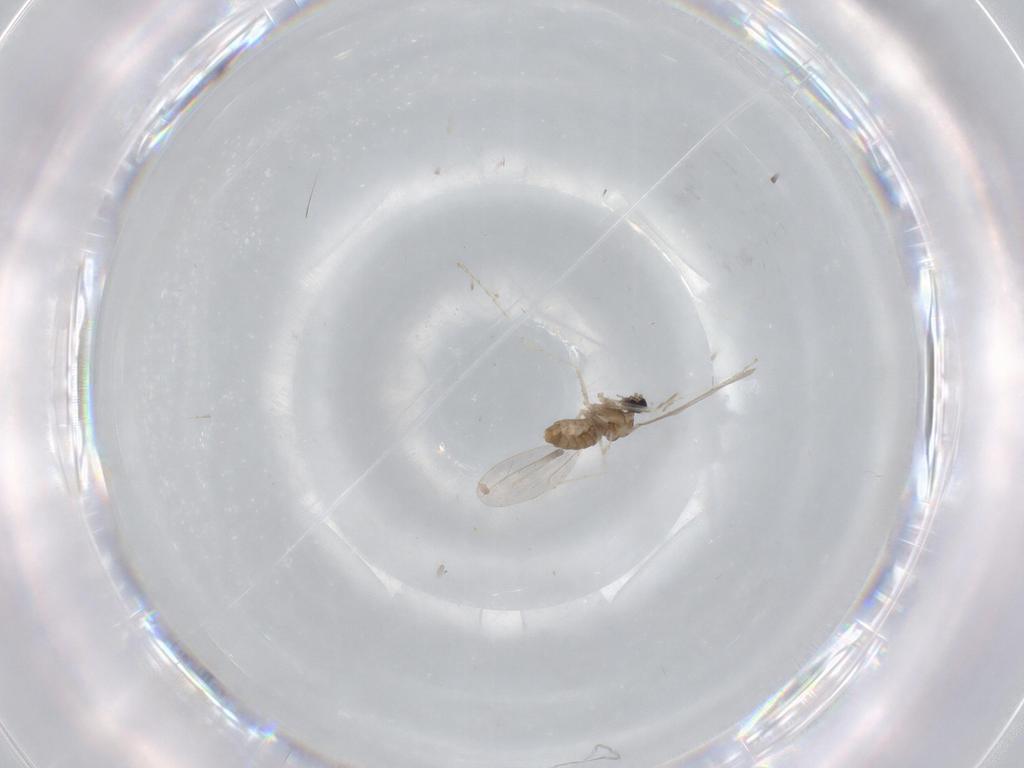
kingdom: Animalia
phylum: Arthropoda
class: Insecta
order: Diptera
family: Cecidomyiidae
